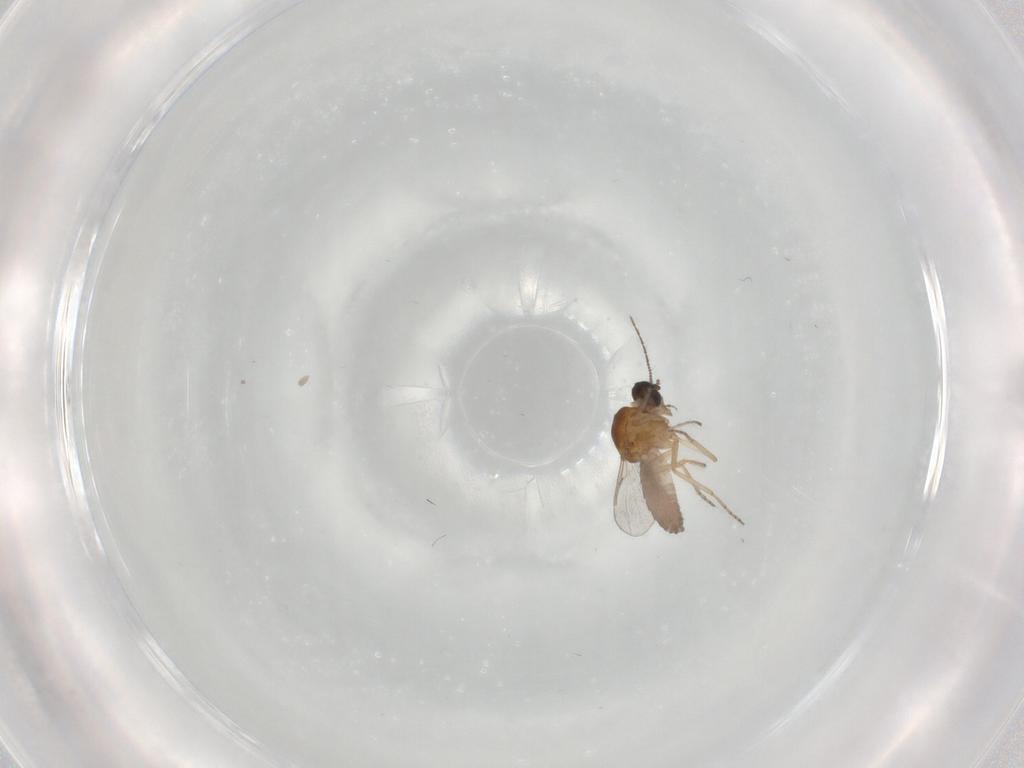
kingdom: Animalia
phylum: Arthropoda
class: Insecta
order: Diptera
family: Ceratopogonidae
